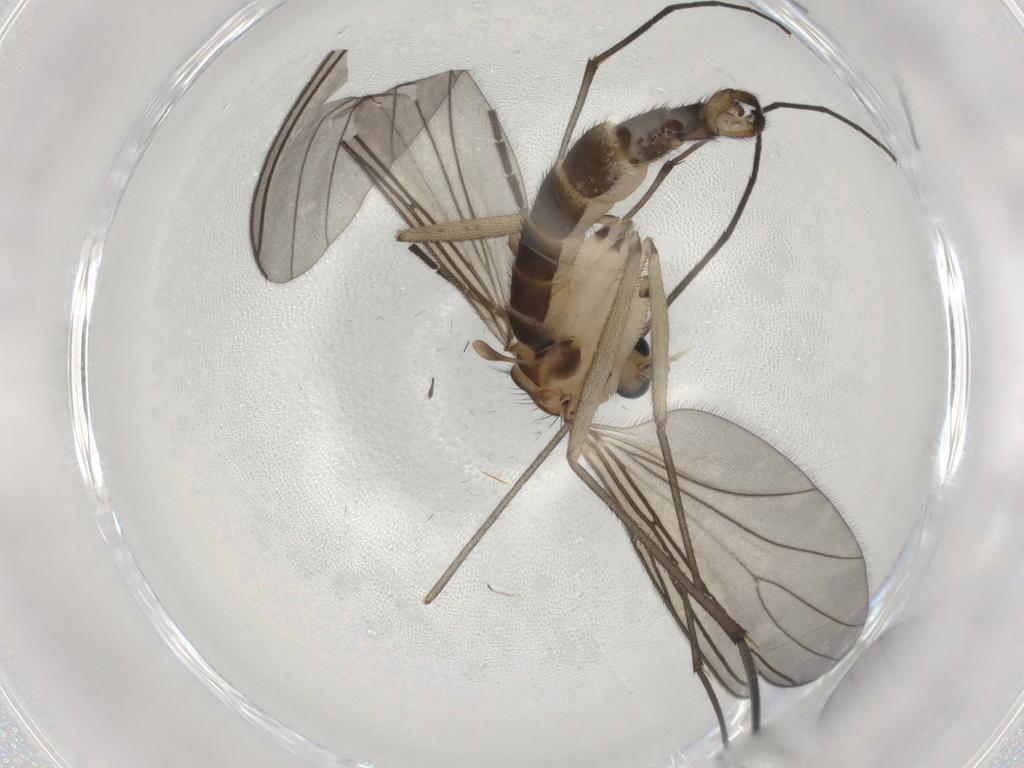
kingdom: Animalia
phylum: Arthropoda
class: Insecta
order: Diptera
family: Sciaridae
